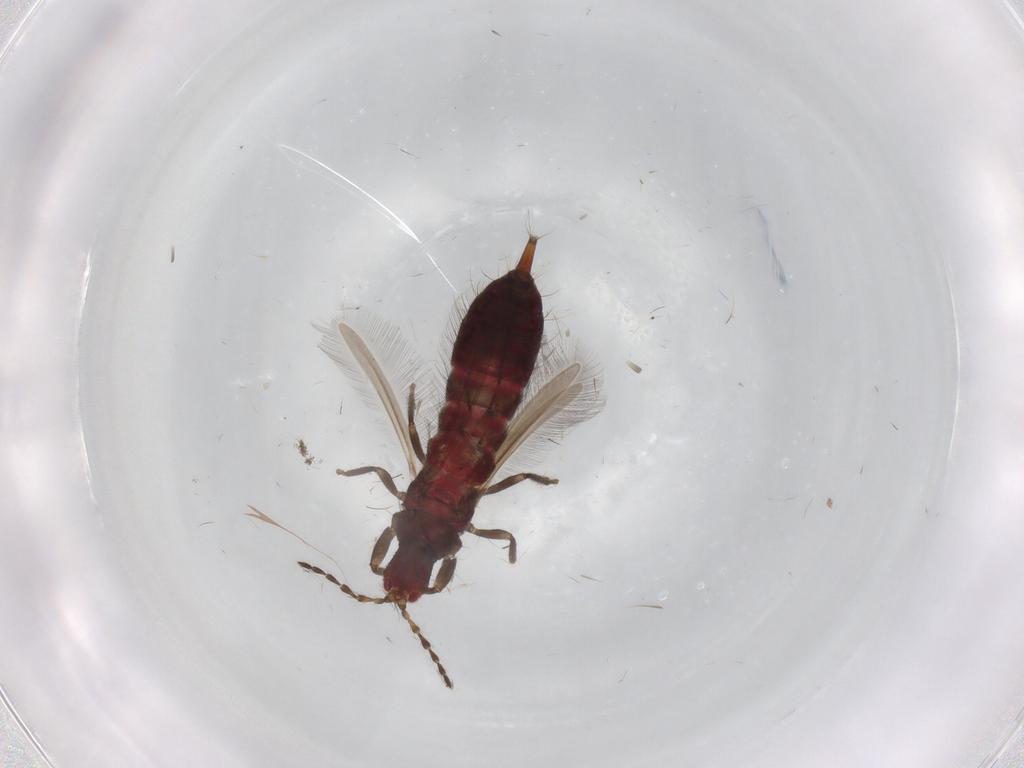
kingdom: Animalia
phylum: Arthropoda
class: Insecta
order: Thysanoptera
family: Phlaeothripidae
